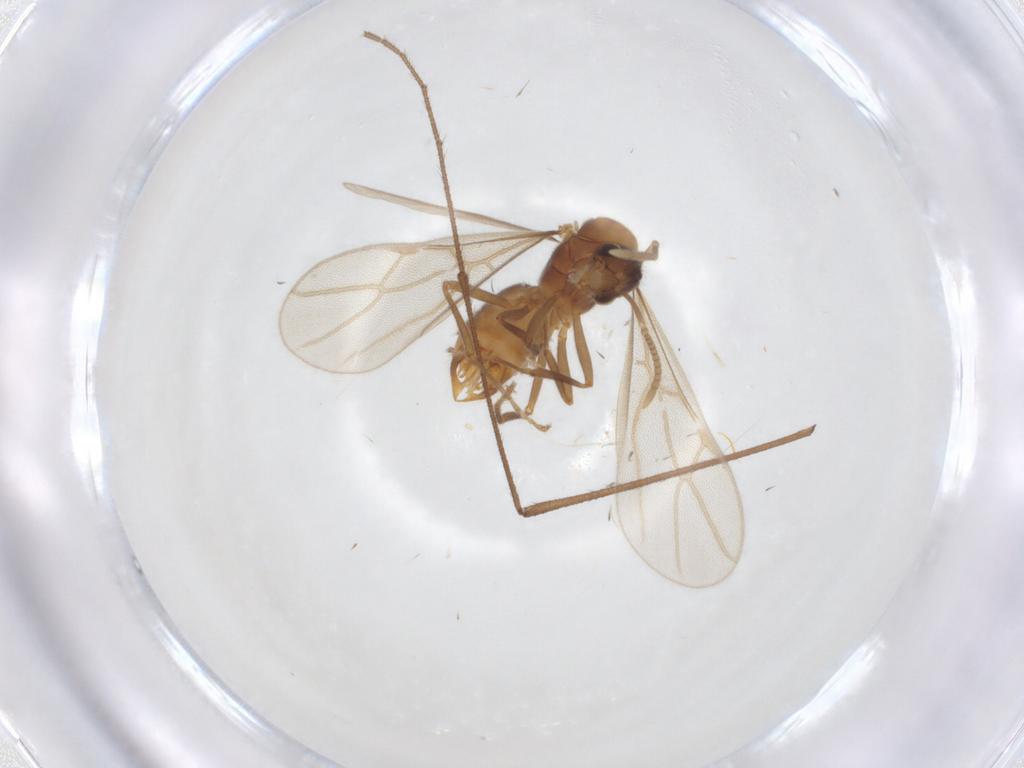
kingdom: Animalia
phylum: Arthropoda
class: Insecta
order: Hymenoptera
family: Formicidae
